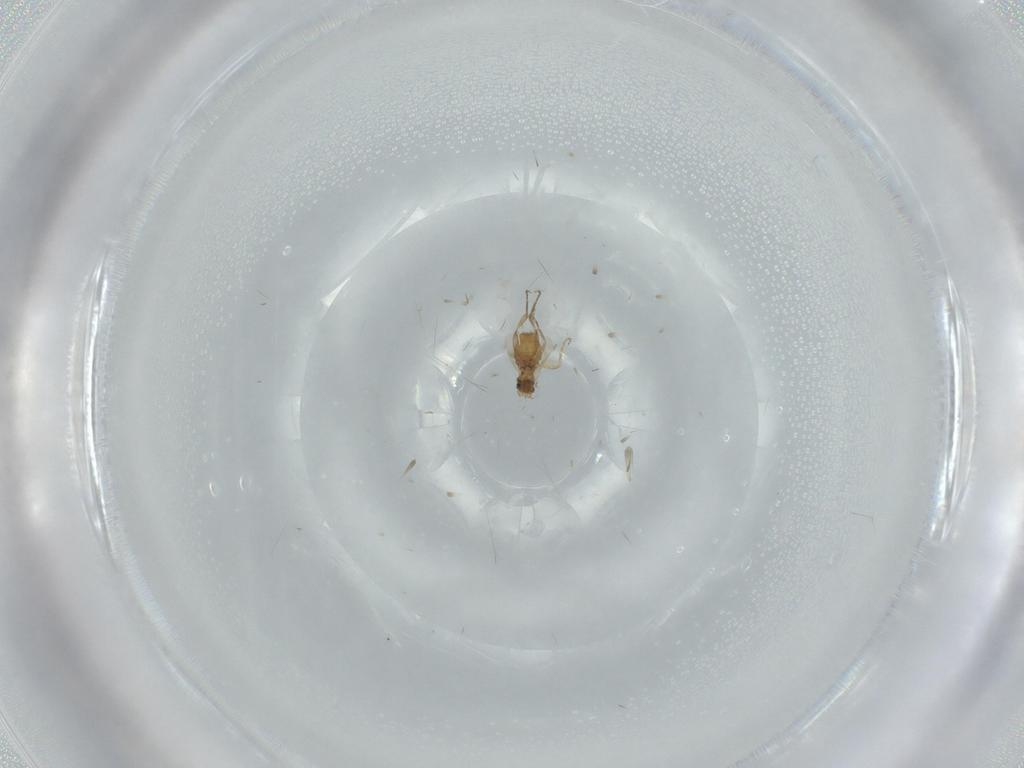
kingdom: Animalia
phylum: Arthropoda
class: Insecta
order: Diptera
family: Phoridae
